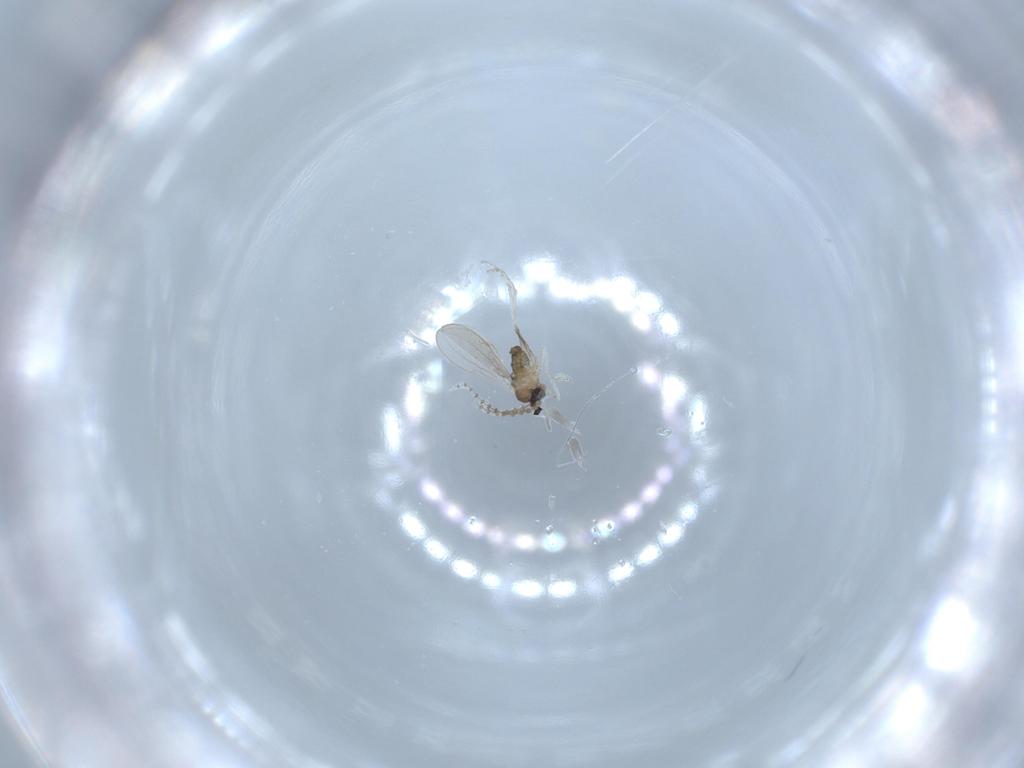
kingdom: Animalia
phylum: Arthropoda
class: Insecta
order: Diptera
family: Cecidomyiidae
